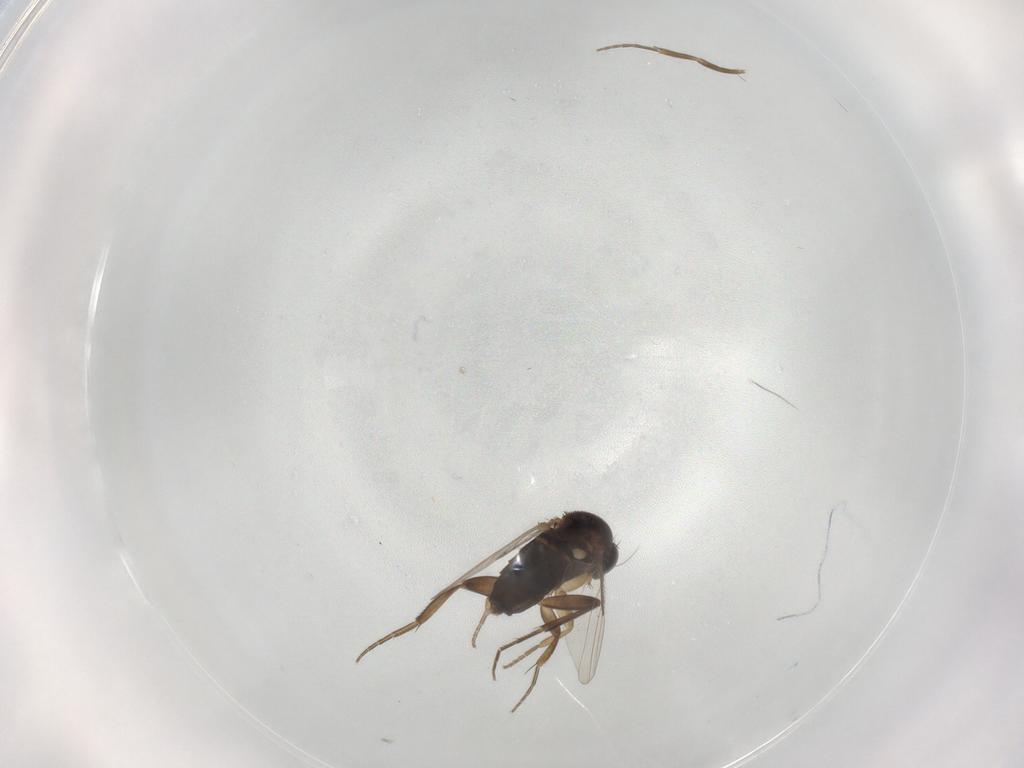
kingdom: Animalia
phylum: Arthropoda
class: Insecta
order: Diptera
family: Phoridae
